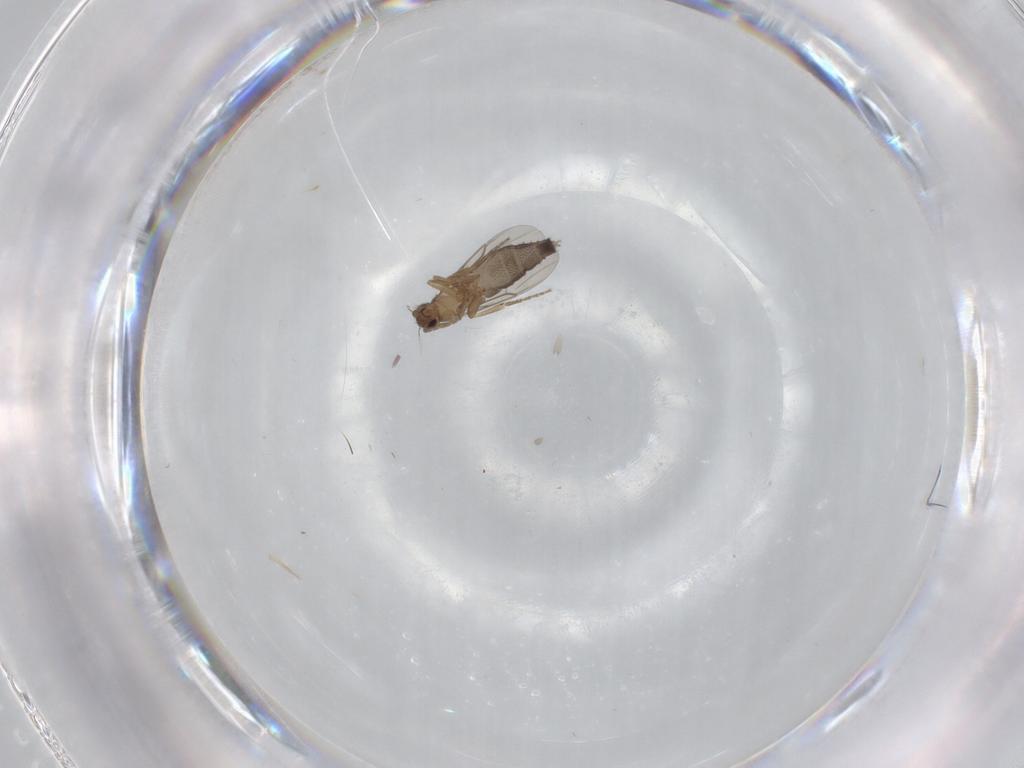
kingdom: Animalia
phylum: Arthropoda
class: Insecta
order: Diptera
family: Phoridae
